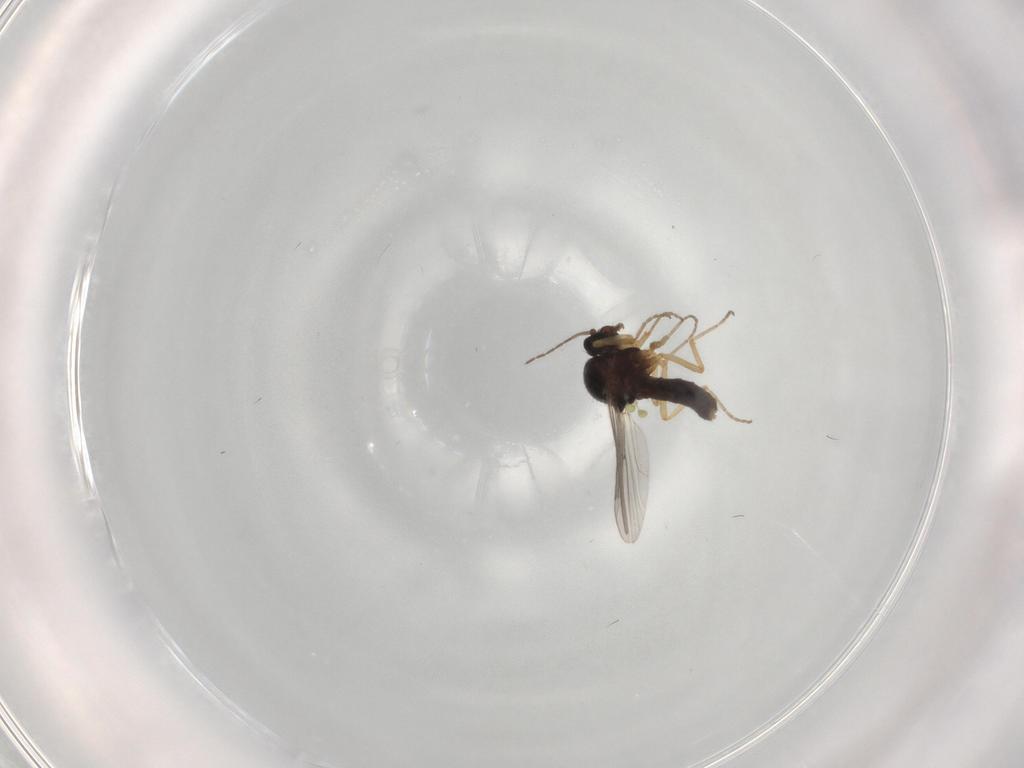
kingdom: Animalia
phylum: Arthropoda
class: Insecta
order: Diptera
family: Ceratopogonidae
